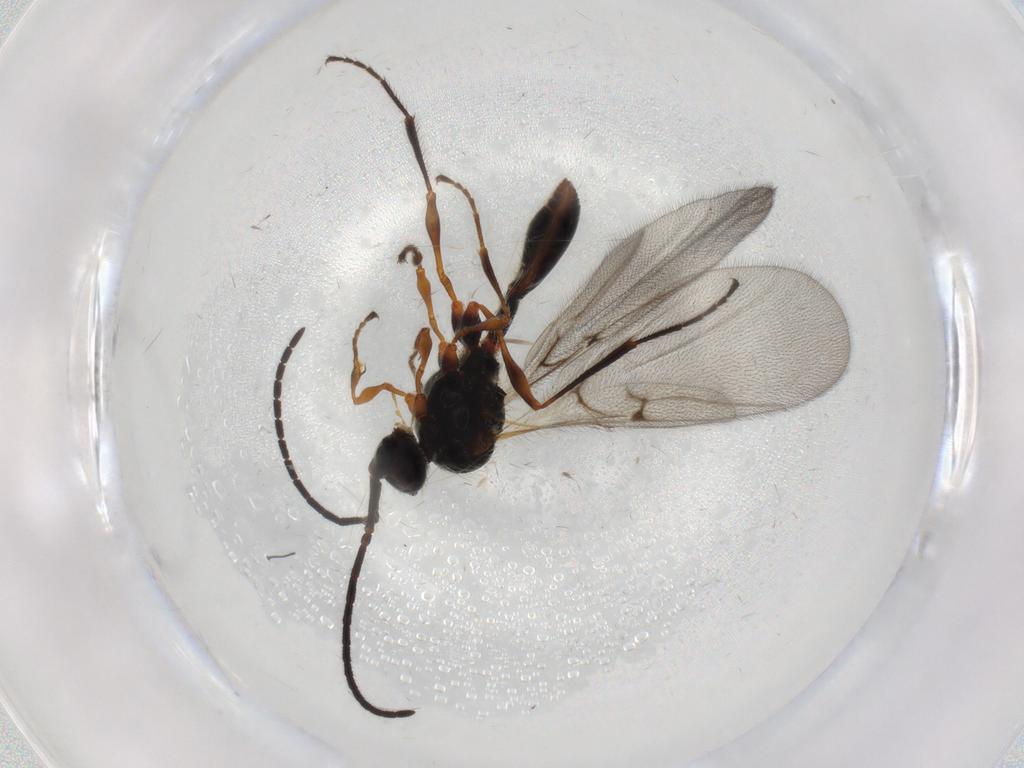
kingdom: Animalia
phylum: Arthropoda
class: Insecta
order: Hymenoptera
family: Diapriidae
